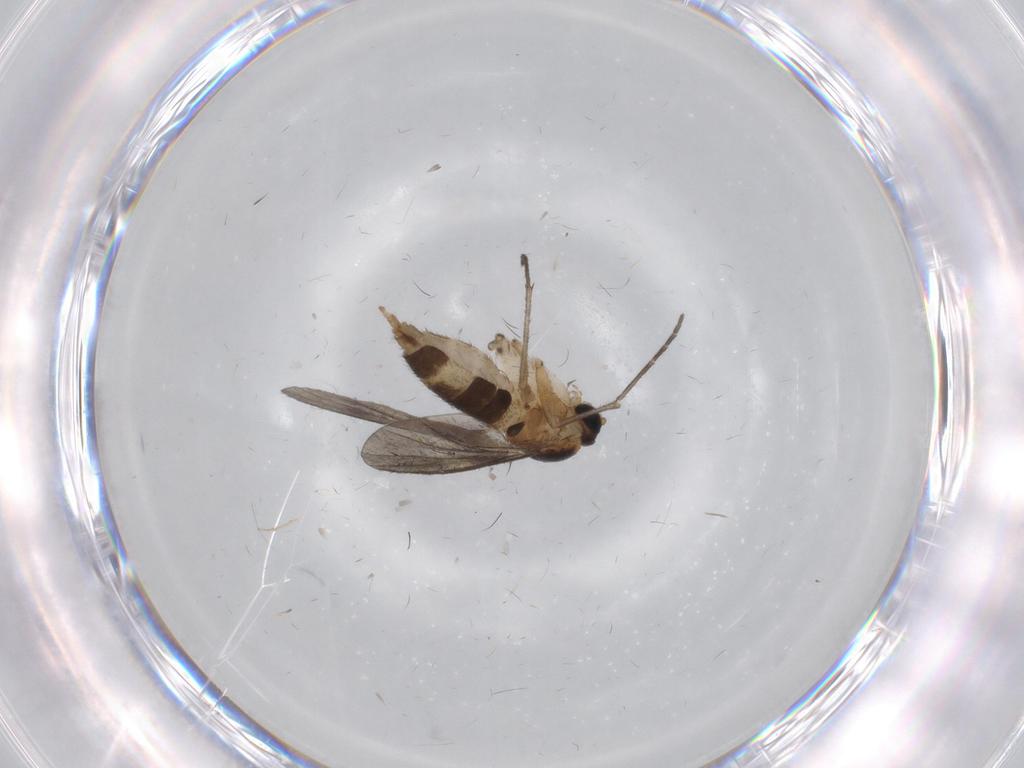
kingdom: Animalia
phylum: Arthropoda
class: Insecta
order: Diptera
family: Sciaridae
